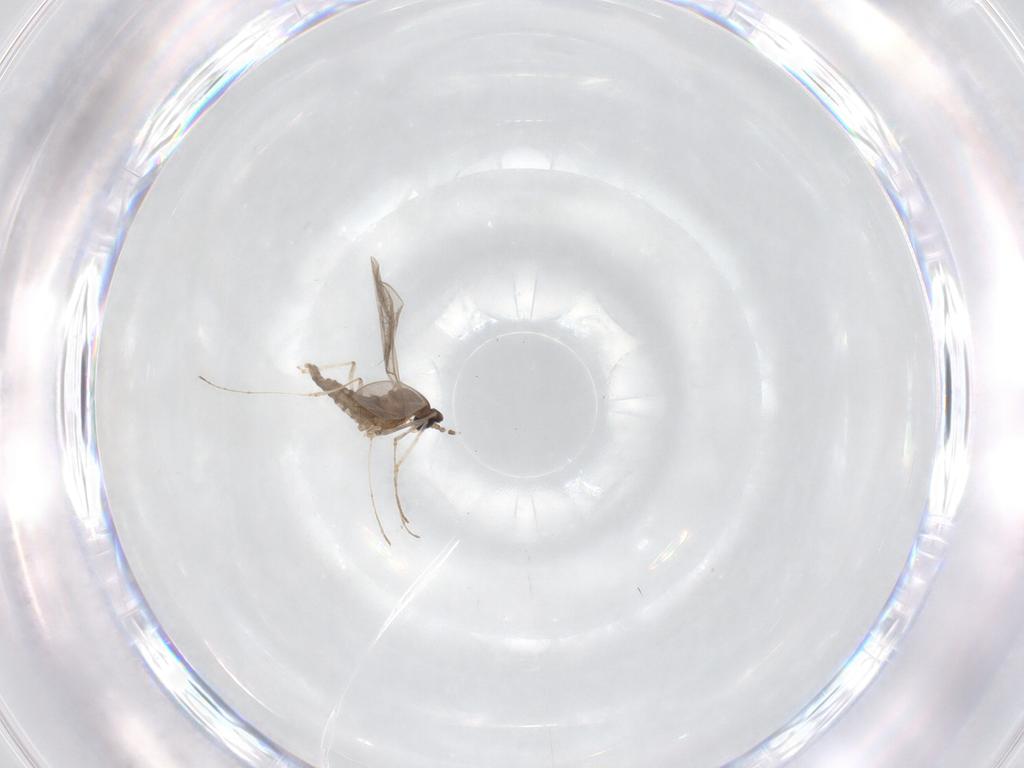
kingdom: Animalia
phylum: Arthropoda
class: Insecta
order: Diptera
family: Cecidomyiidae
